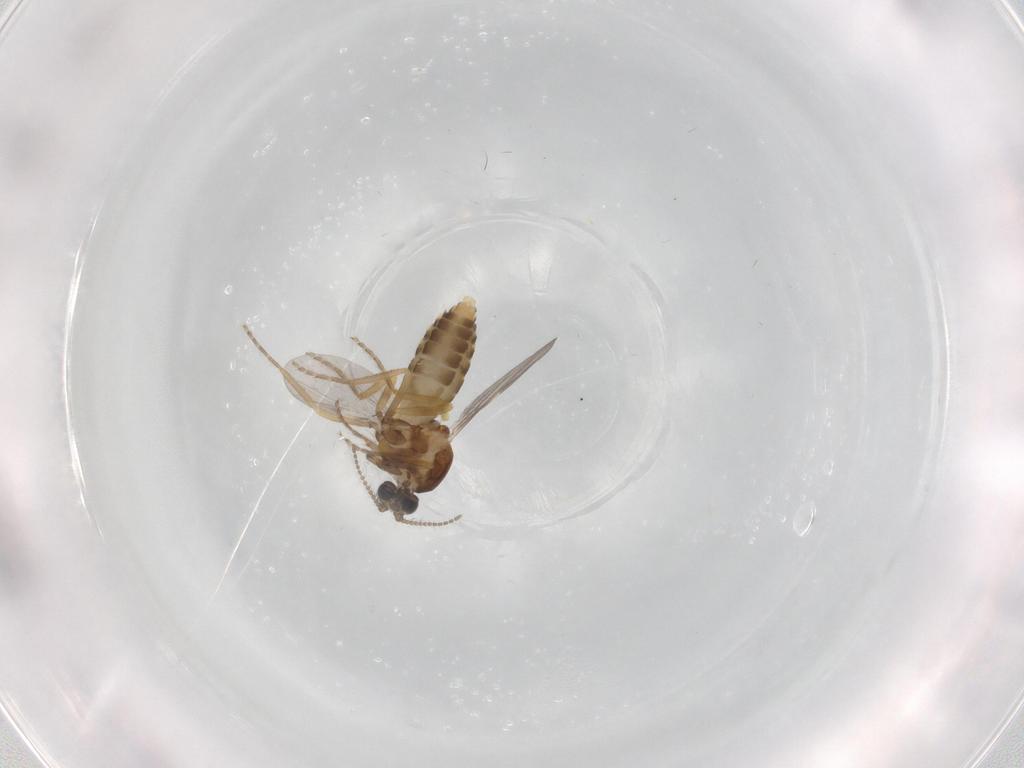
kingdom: Animalia
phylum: Arthropoda
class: Insecta
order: Diptera
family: Ceratopogonidae
